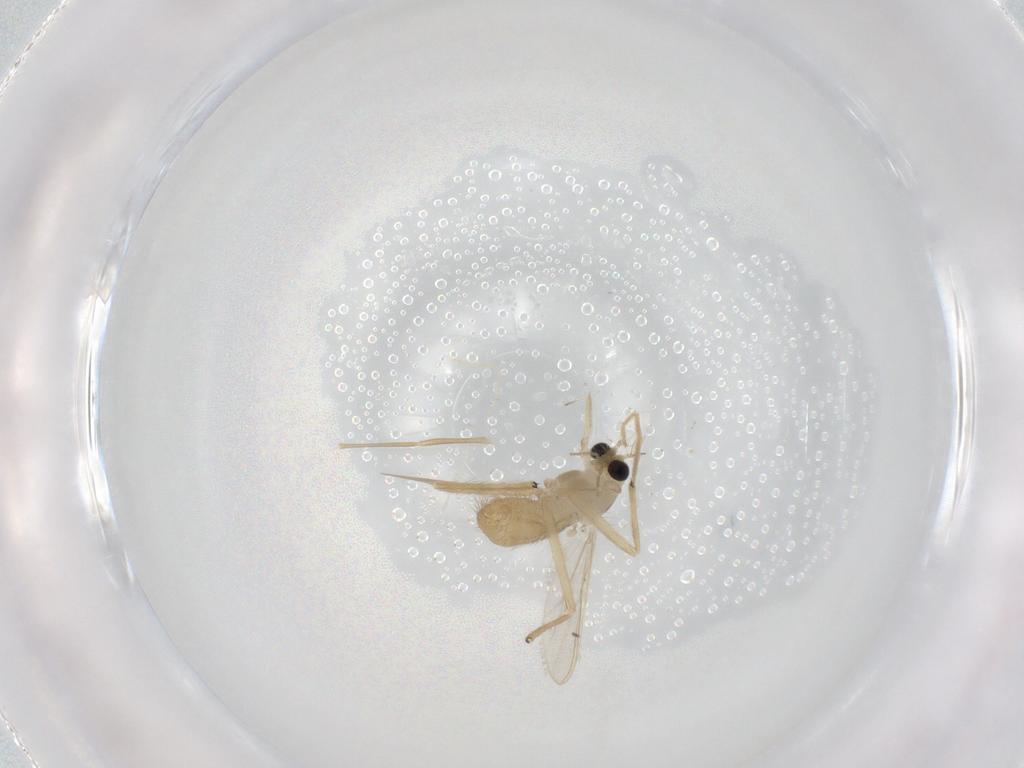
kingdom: Animalia
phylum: Arthropoda
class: Insecta
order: Diptera
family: Chironomidae
